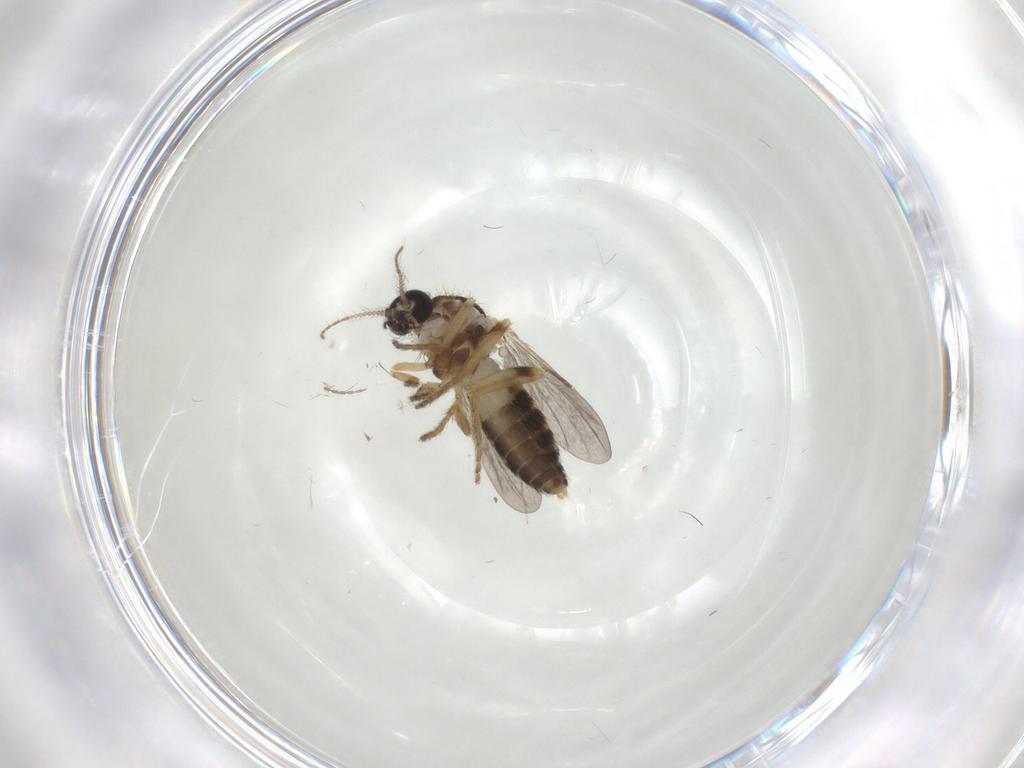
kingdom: Animalia
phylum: Arthropoda
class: Insecta
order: Diptera
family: Ceratopogonidae
